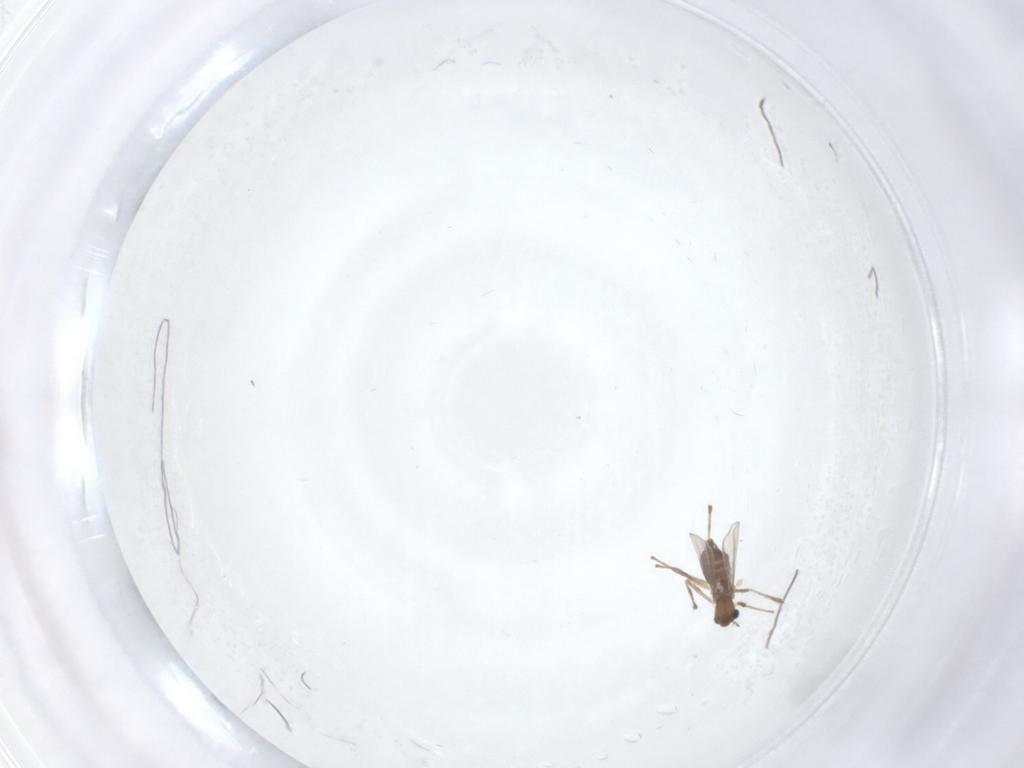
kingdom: Animalia
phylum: Arthropoda
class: Insecta
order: Diptera
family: Chironomidae
